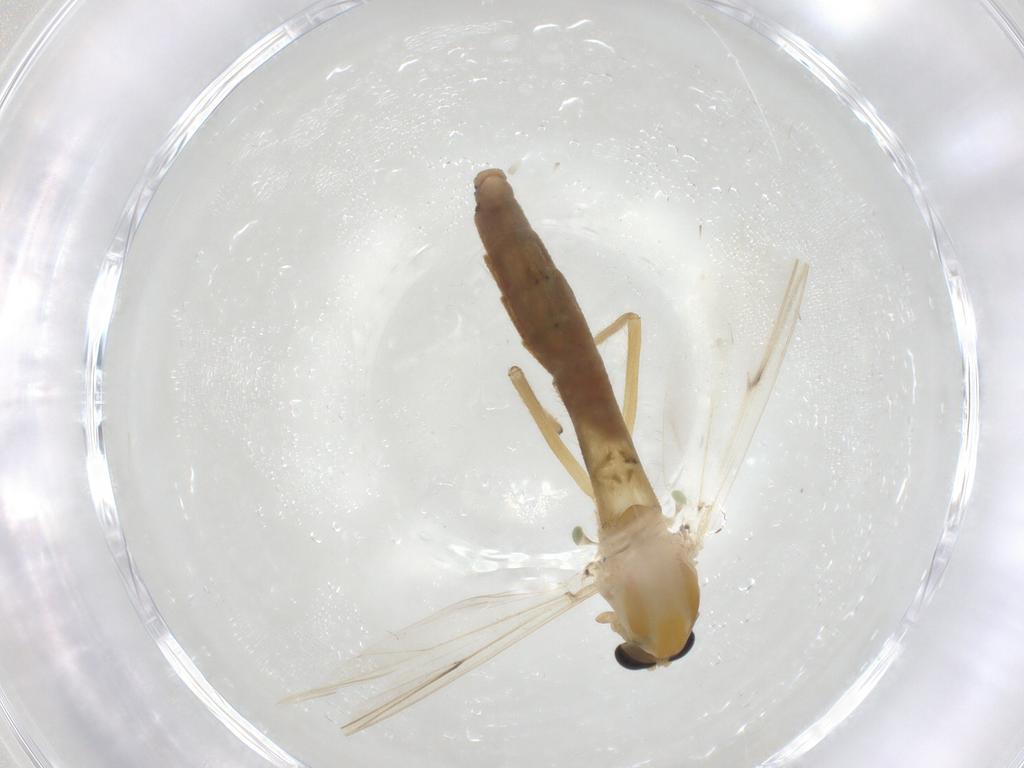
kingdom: Animalia
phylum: Arthropoda
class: Insecta
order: Diptera
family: Chironomidae
